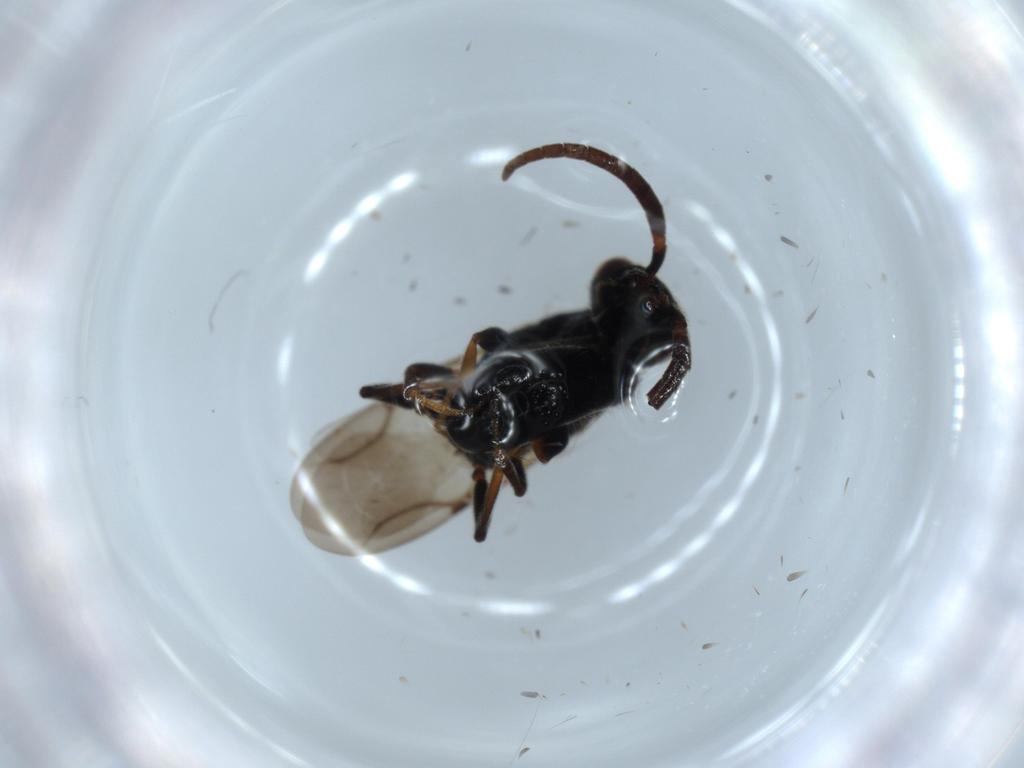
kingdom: Animalia
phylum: Arthropoda
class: Insecta
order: Hymenoptera
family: Bethylidae
